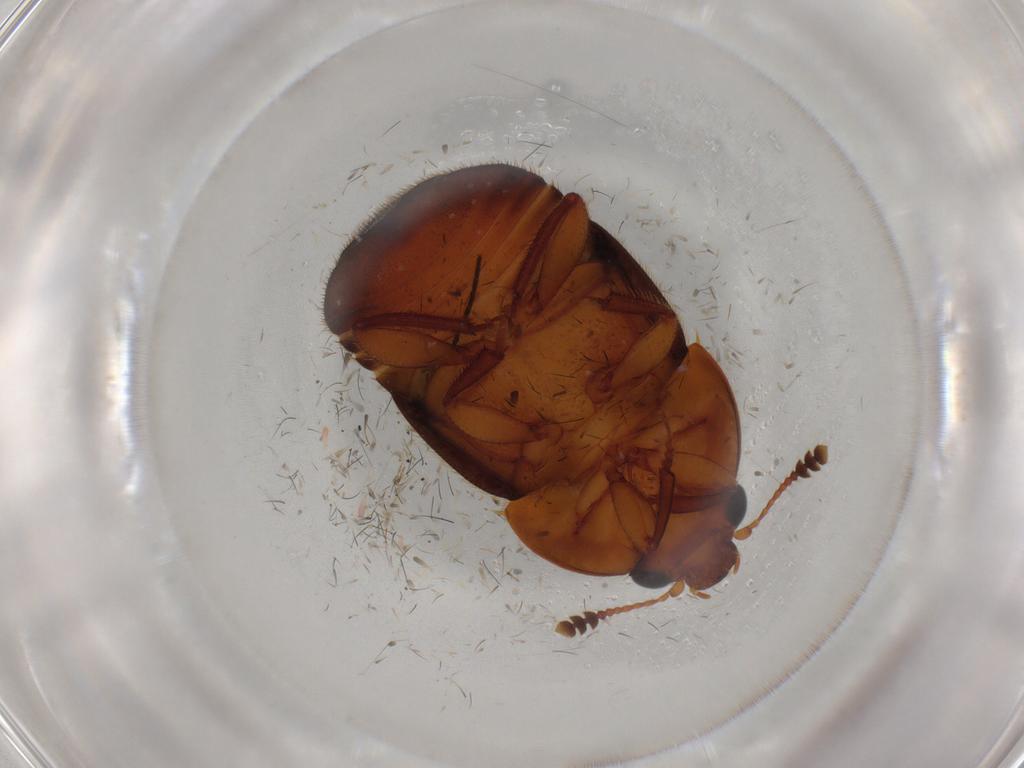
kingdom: Animalia
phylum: Arthropoda
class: Insecta
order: Coleoptera
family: Nitidulidae
